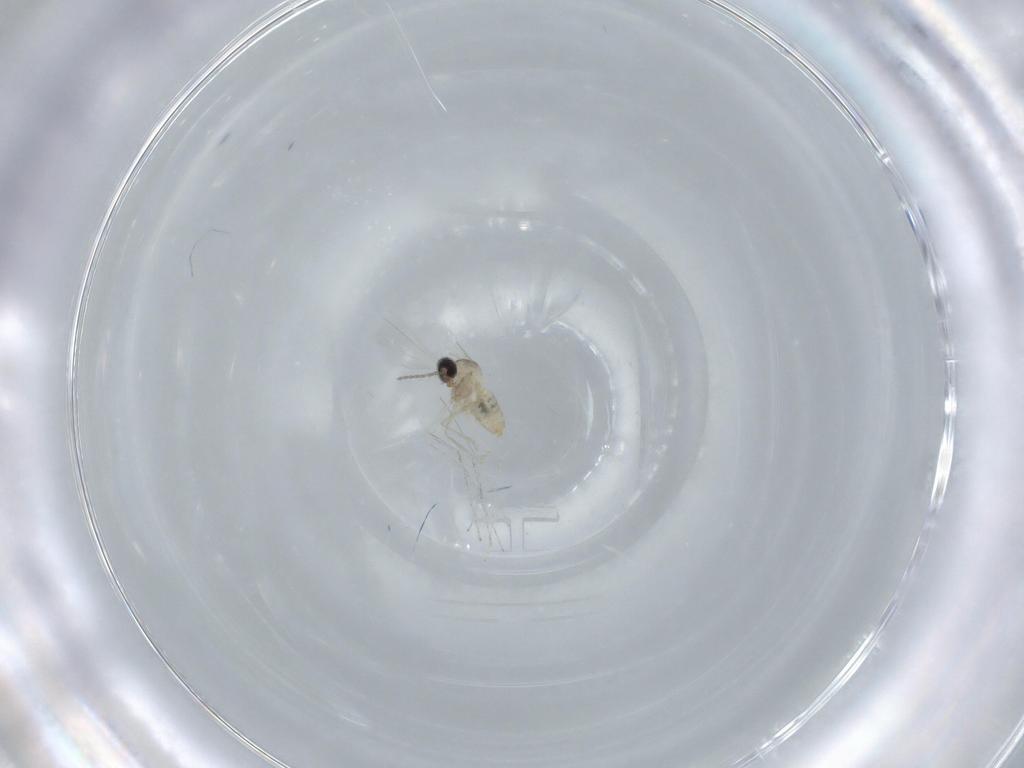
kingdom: Animalia
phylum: Arthropoda
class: Insecta
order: Diptera
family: Cecidomyiidae
